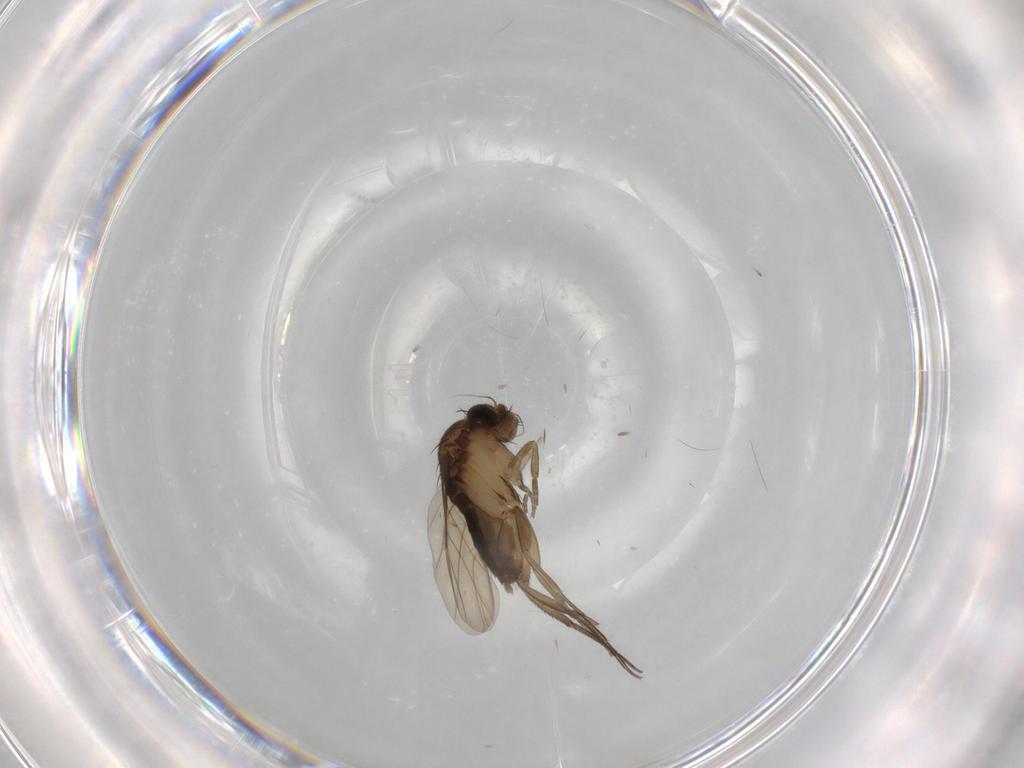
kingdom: Animalia
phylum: Arthropoda
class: Insecta
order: Diptera
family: Phoridae
